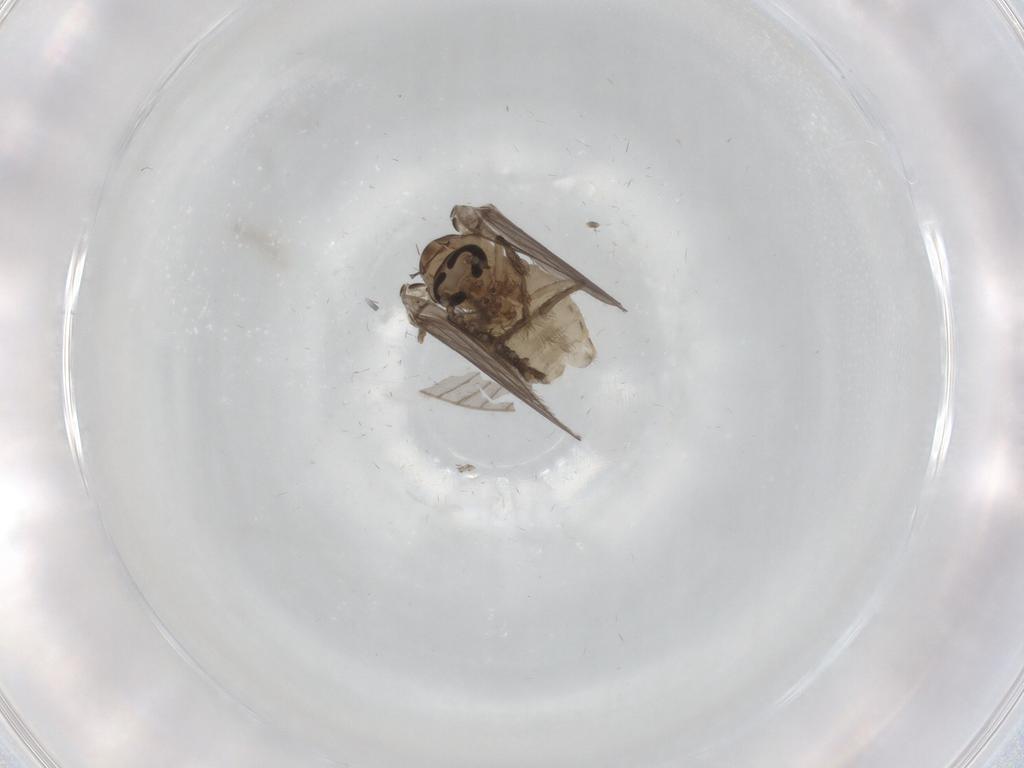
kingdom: Animalia
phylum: Arthropoda
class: Insecta
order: Diptera
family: Psychodidae
